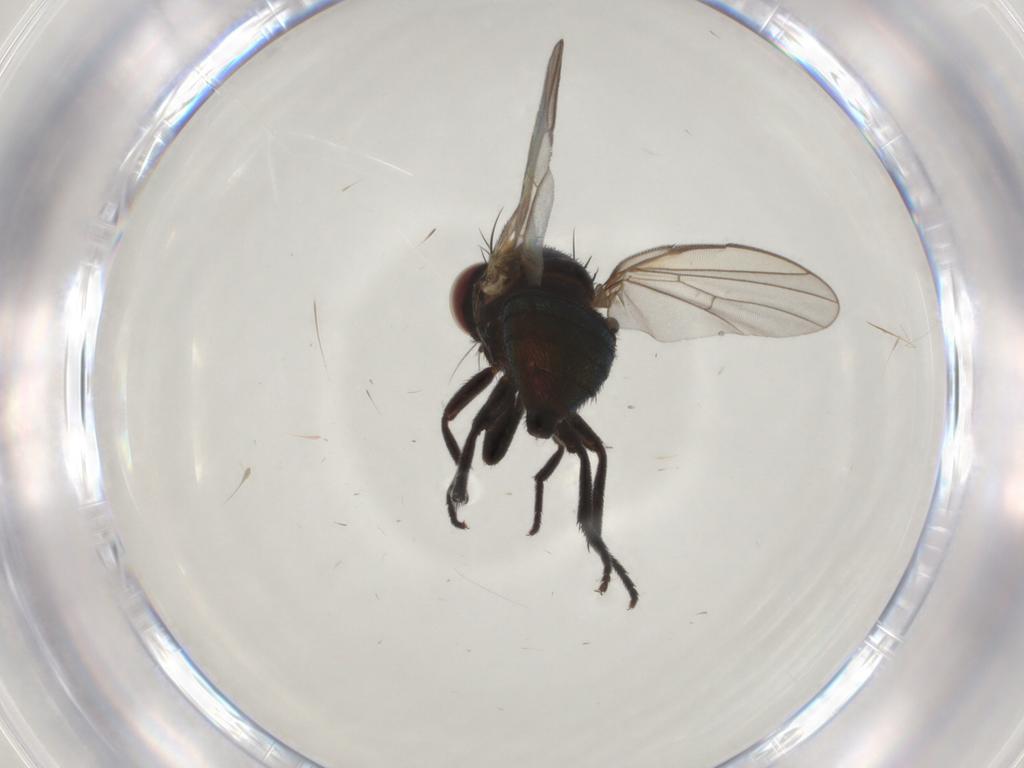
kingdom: Animalia
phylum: Arthropoda
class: Insecta
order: Diptera
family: Agromyzidae
